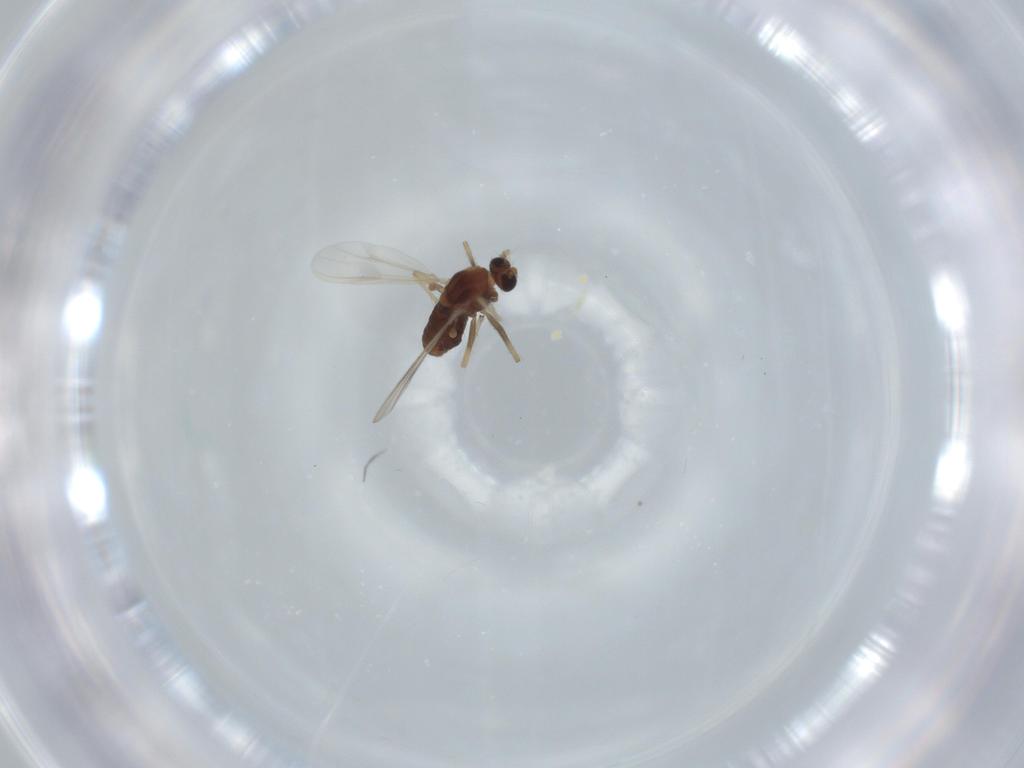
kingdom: Animalia
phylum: Arthropoda
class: Insecta
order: Diptera
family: Chironomidae
